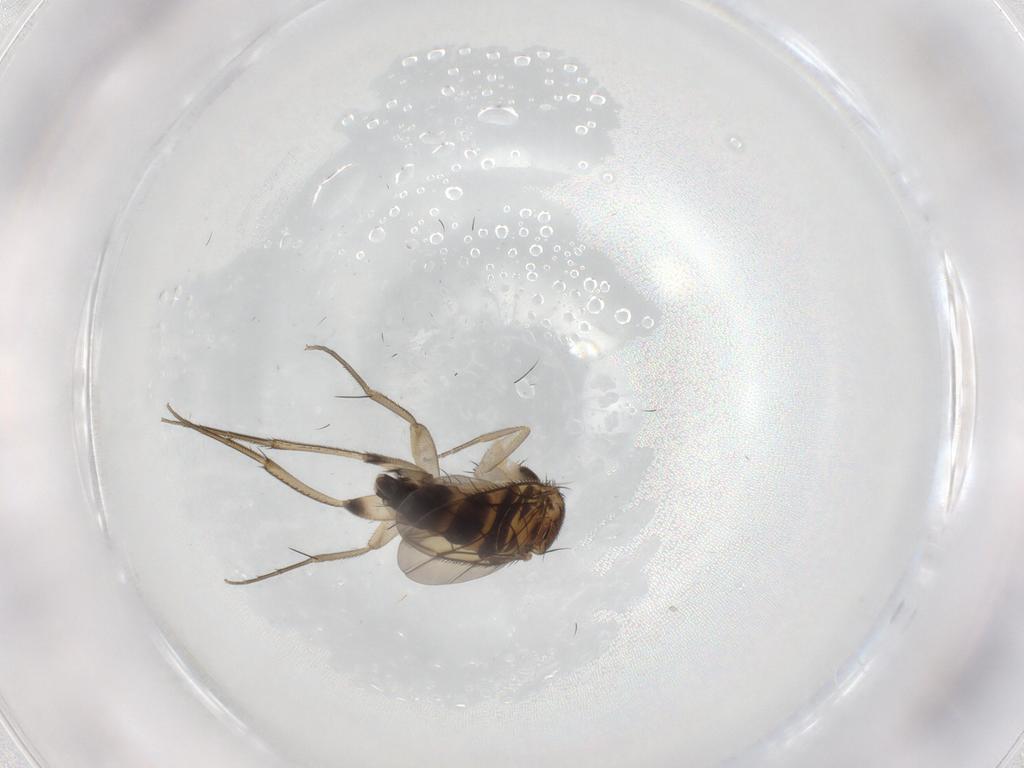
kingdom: Animalia
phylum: Arthropoda
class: Insecta
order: Diptera
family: Phoridae
